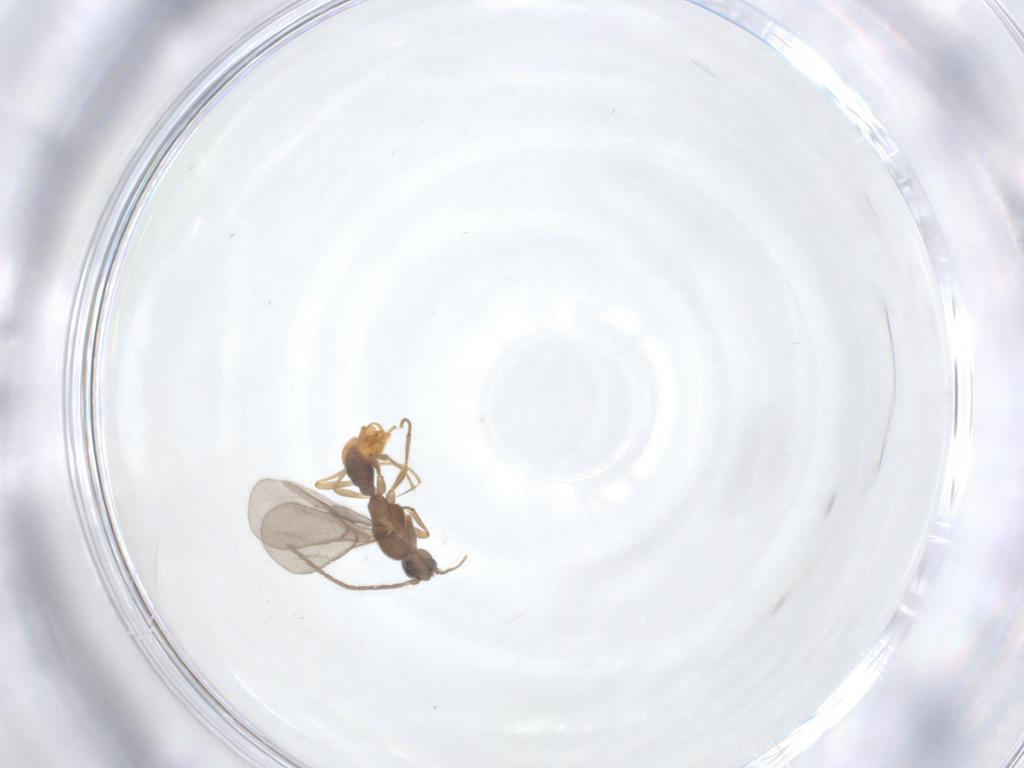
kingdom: Animalia
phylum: Arthropoda
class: Insecta
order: Hymenoptera
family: Formicidae
